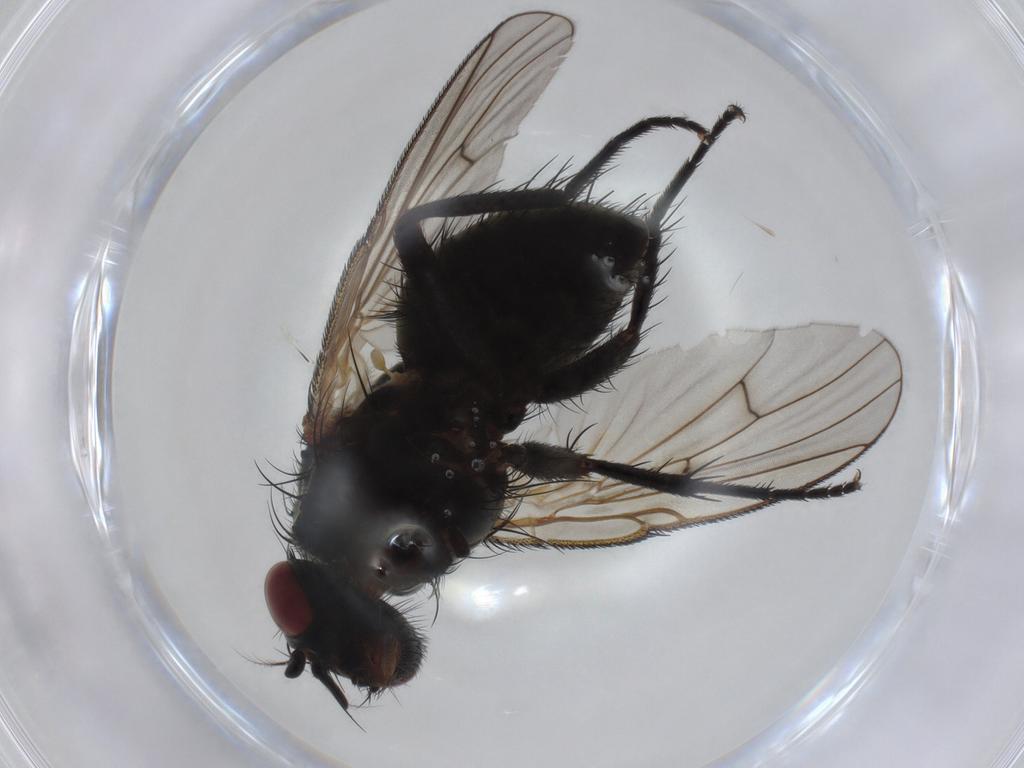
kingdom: Animalia
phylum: Arthropoda
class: Insecta
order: Diptera
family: Muscidae
